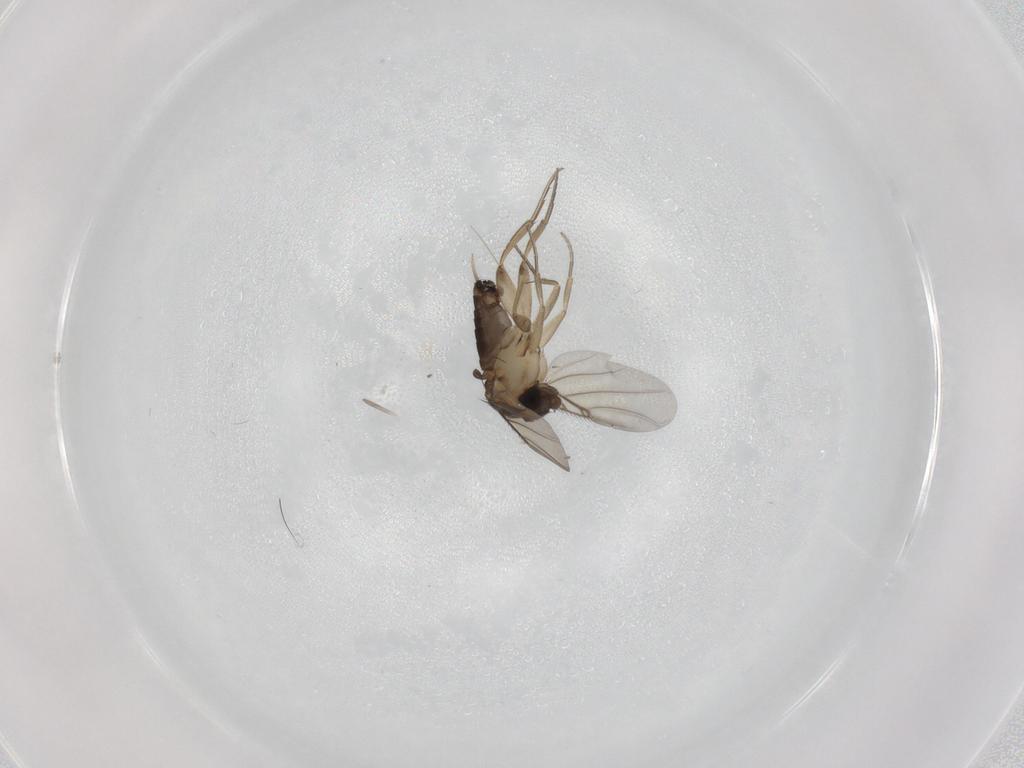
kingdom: Animalia
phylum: Arthropoda
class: Insecta
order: Diptera
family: Phoridae
